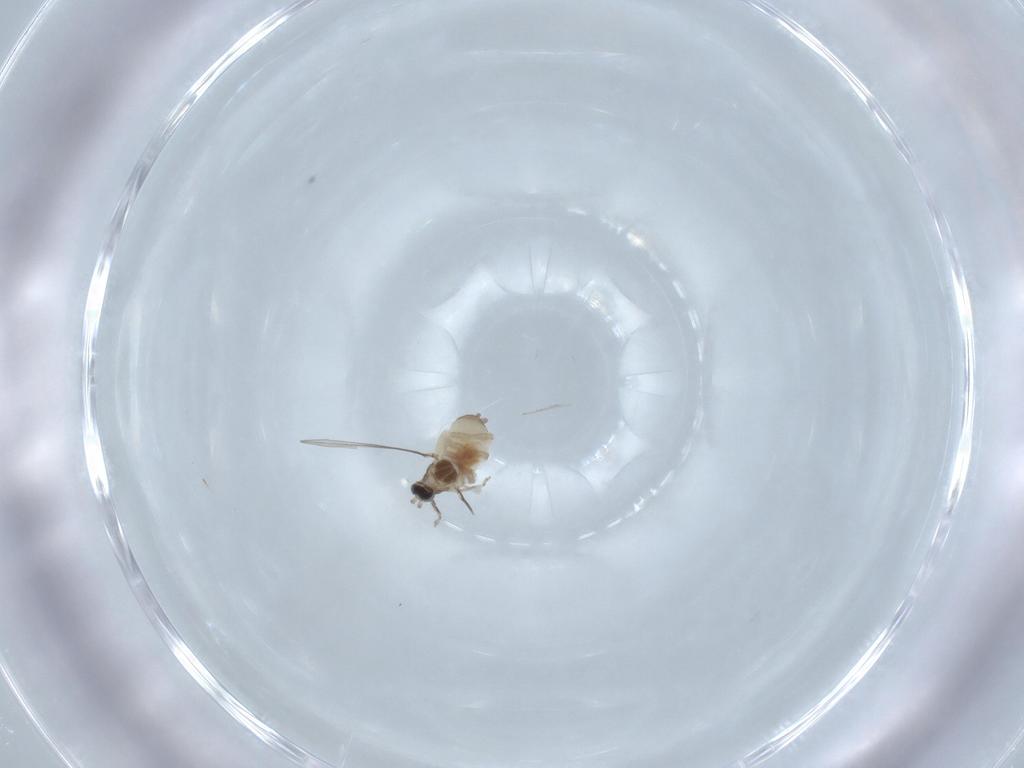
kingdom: Animalia
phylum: Arthropoda
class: Insecta
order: Diptera
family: Cecidomyiidae
